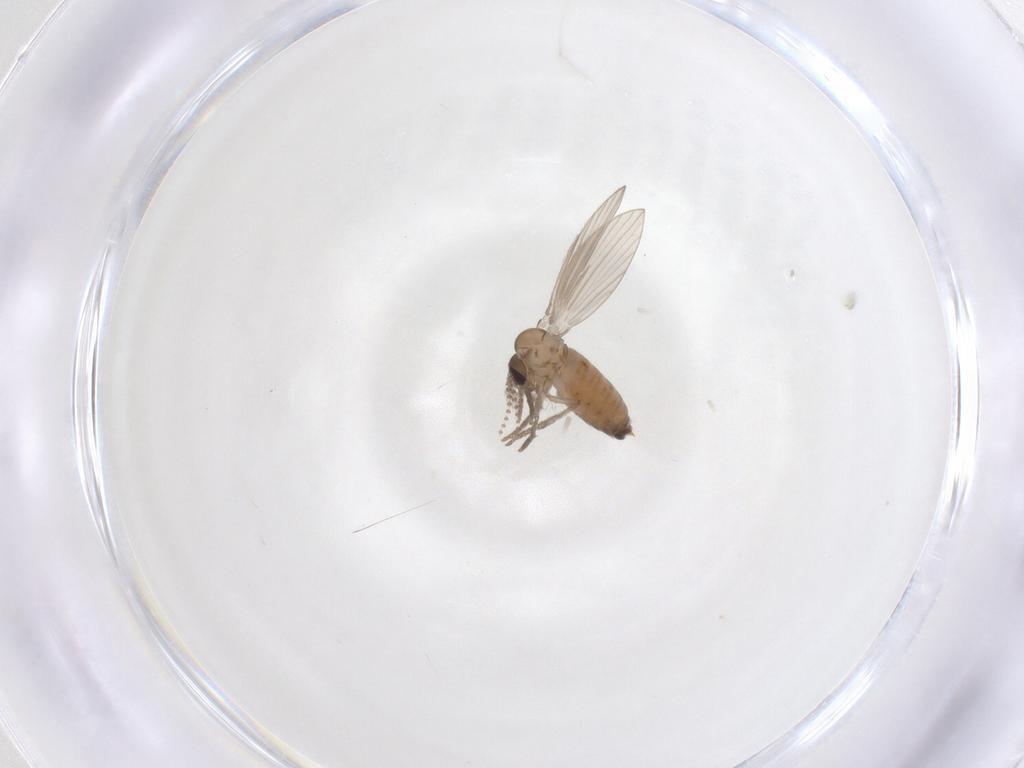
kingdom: Animalia
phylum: Arthropoda
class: Insecta
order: Diptera
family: Psychodidae
